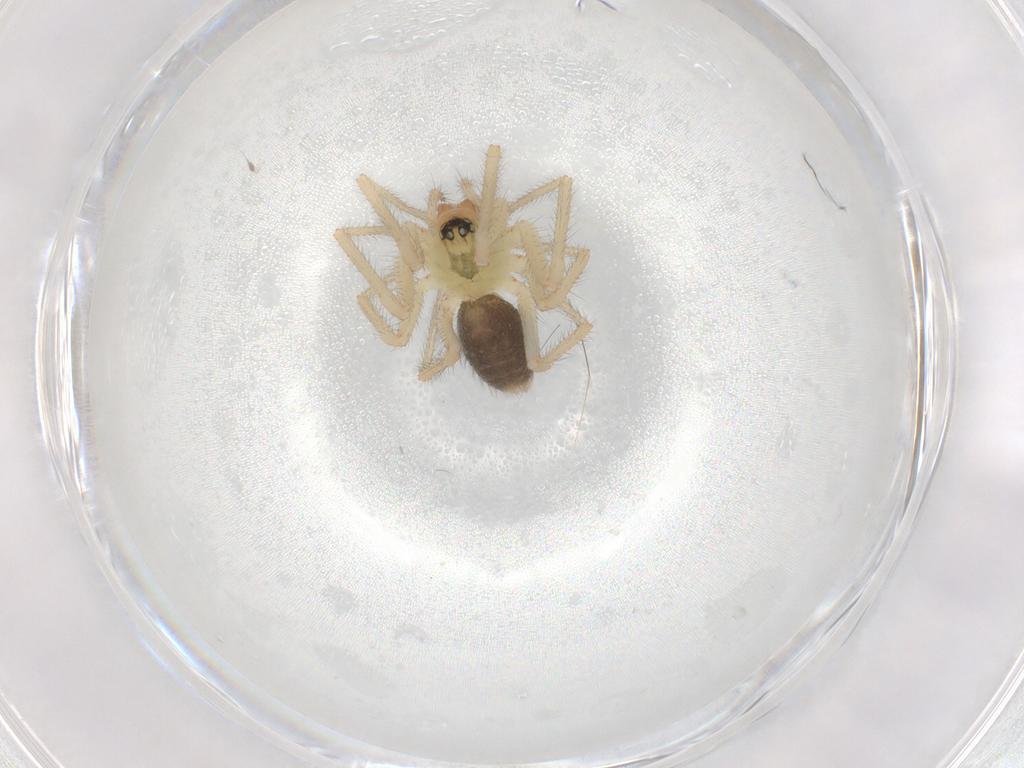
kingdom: Animalia
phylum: Arthropoda
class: Arachnida
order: Araneae
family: Linyphiidae
